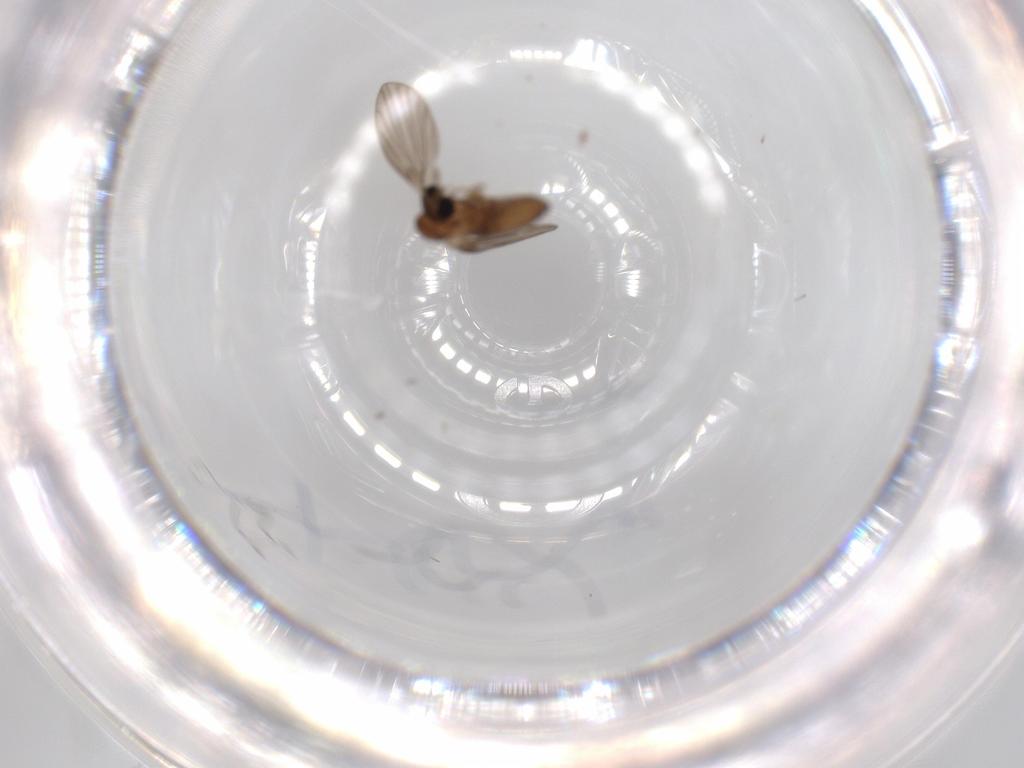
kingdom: Animalia
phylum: Arthropoda
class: Insecta
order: Diptera
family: Psychodidae
